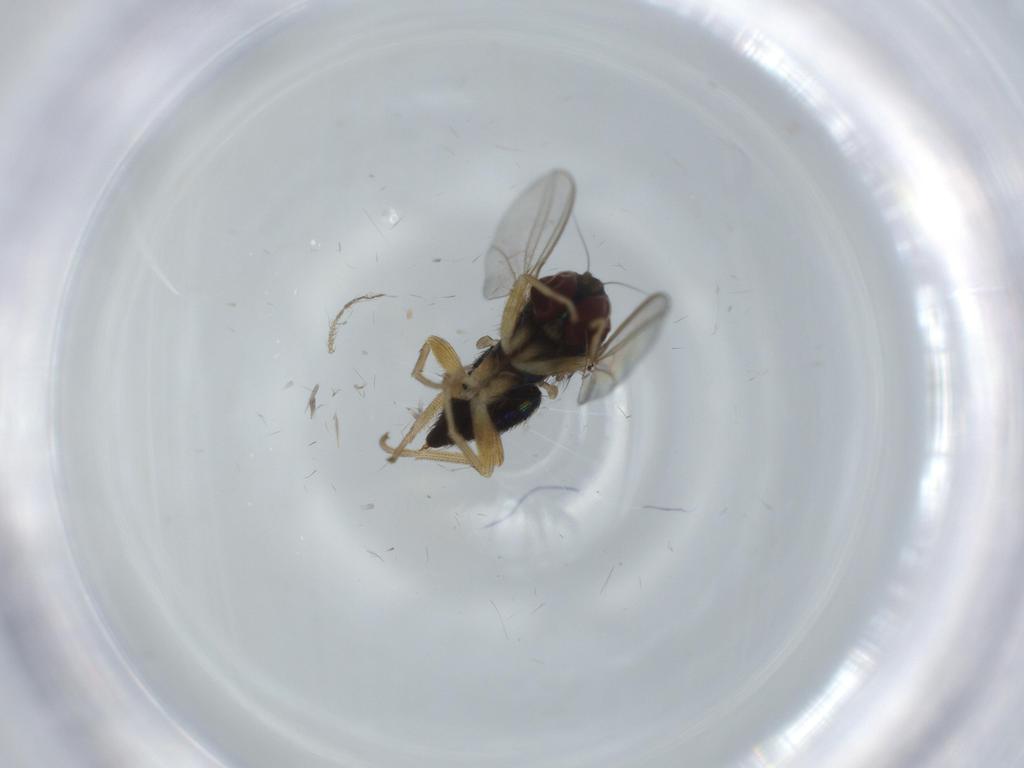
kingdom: Animalia
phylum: Arthropoda
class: Insecta
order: Diptera
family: Dolichopodidae
